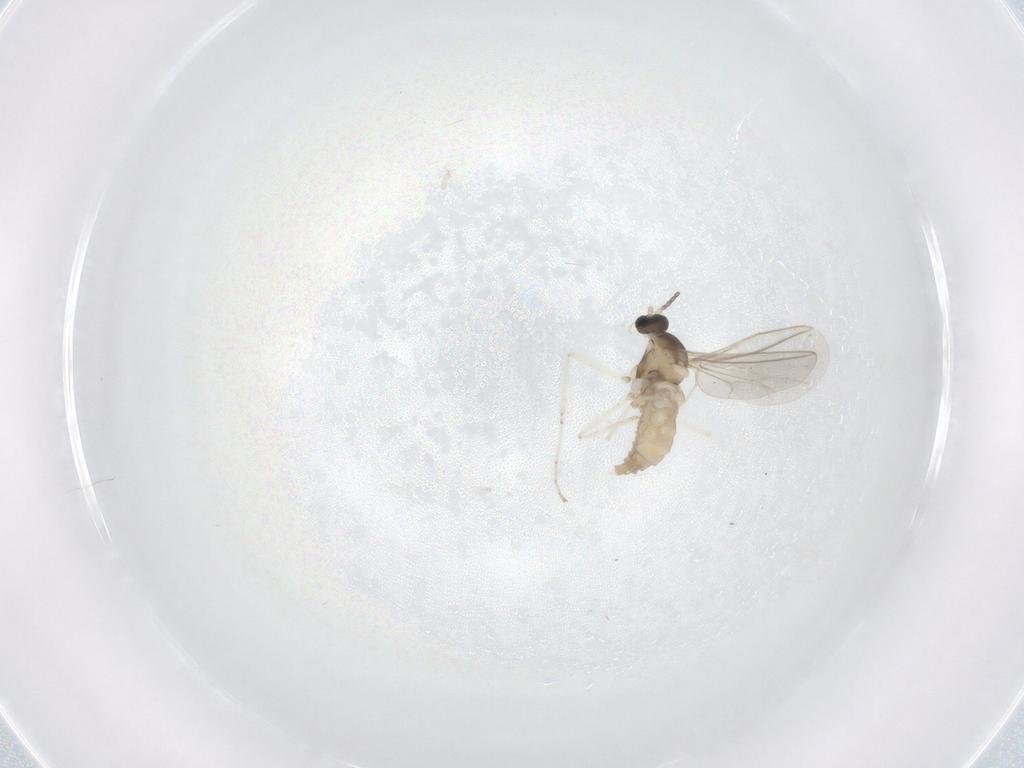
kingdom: Animalia
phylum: Arthropoda
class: Insecta
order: Diptera
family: Cecidomyiidae
